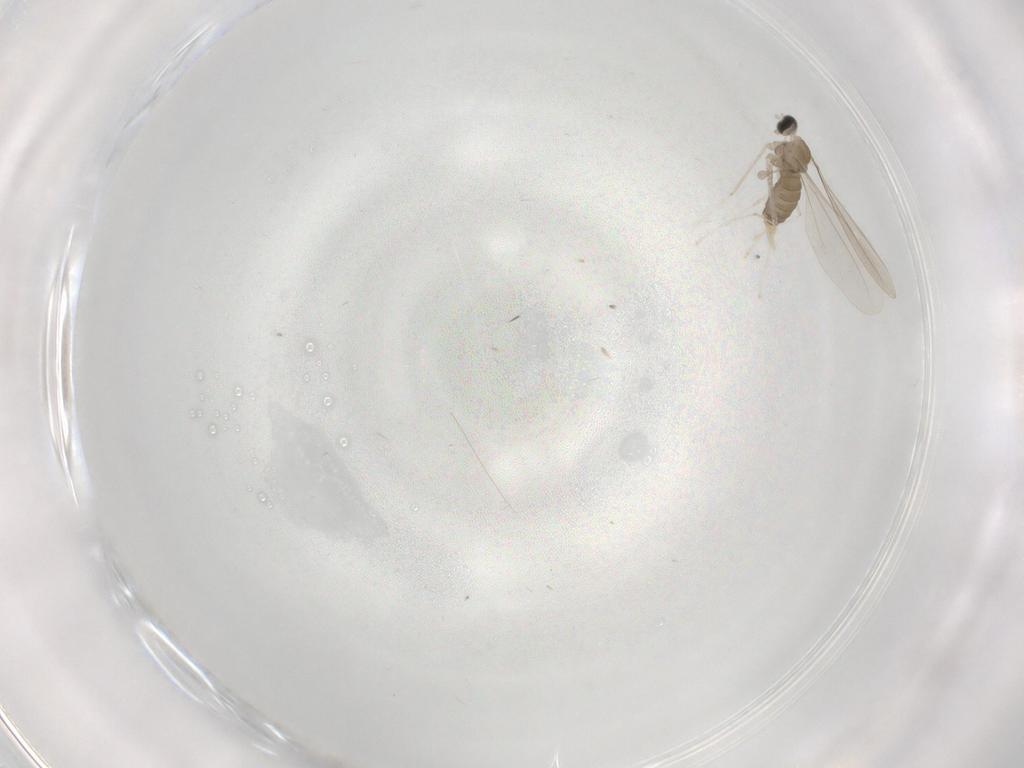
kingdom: Animalia
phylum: Arthropoda
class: Insecta
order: Diptera
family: Cecidomyiidae
